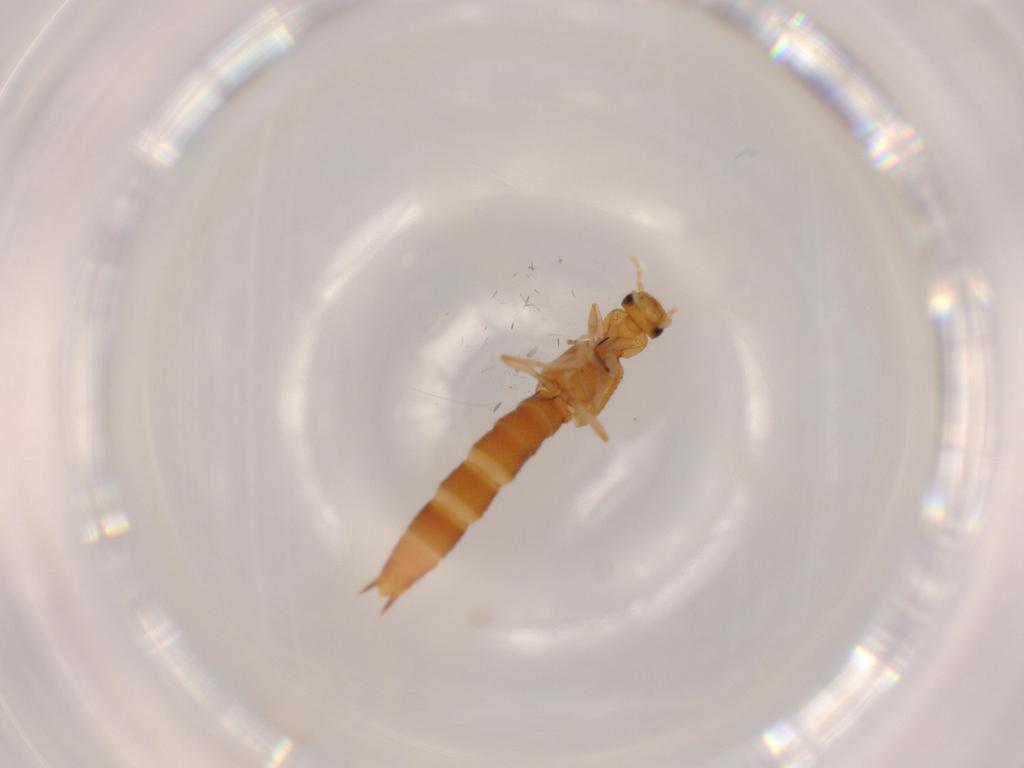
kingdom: Animalia
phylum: Arthropoda
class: Insecta
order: Coleoptera
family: Staphylinidae
